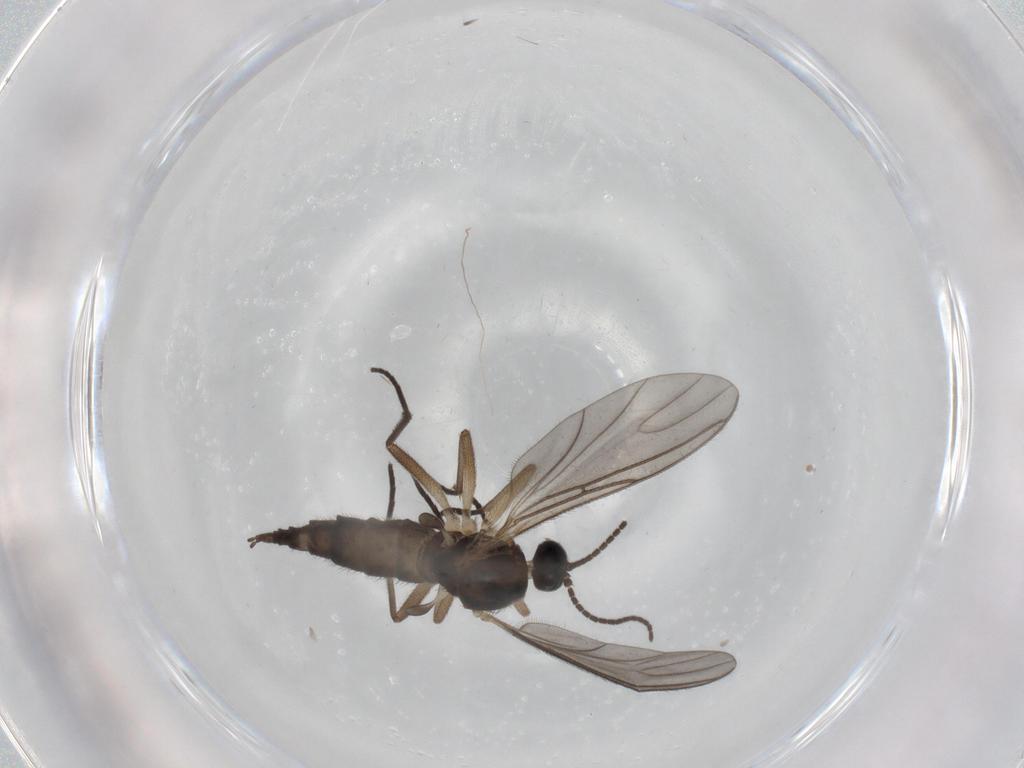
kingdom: Animalia
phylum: Arthropoda
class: Insecta
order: Diptera
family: Sciaridae
